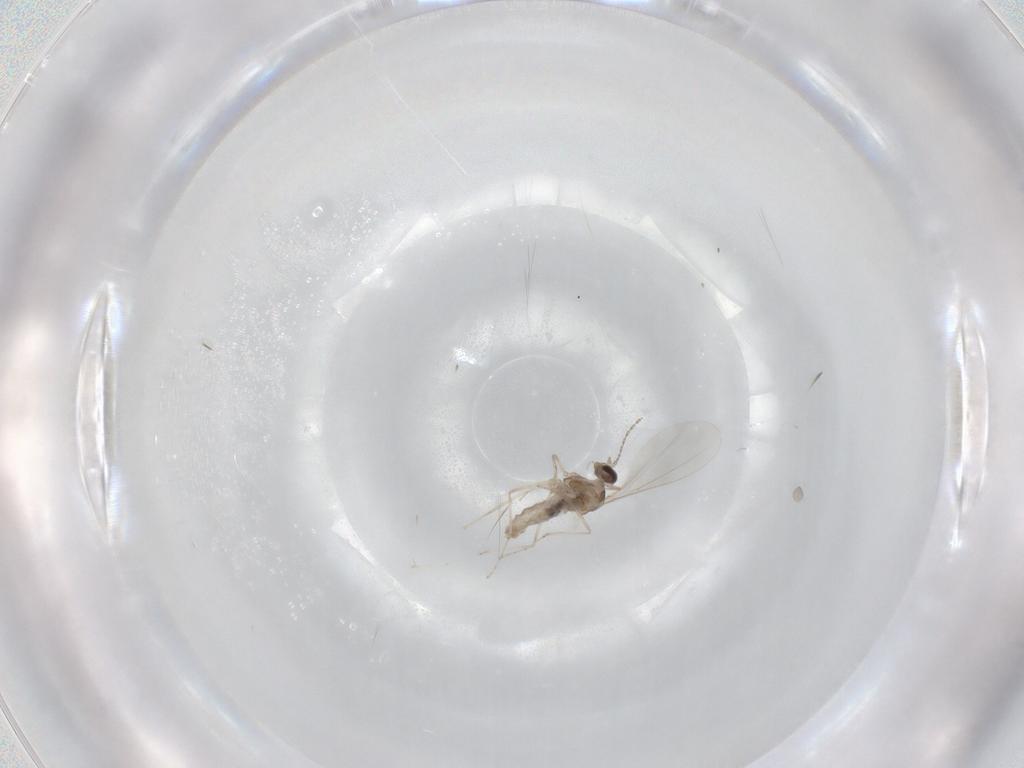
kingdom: Animalia
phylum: Arthropoda
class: Insecta
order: Diptera
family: Cecidomyiidae
